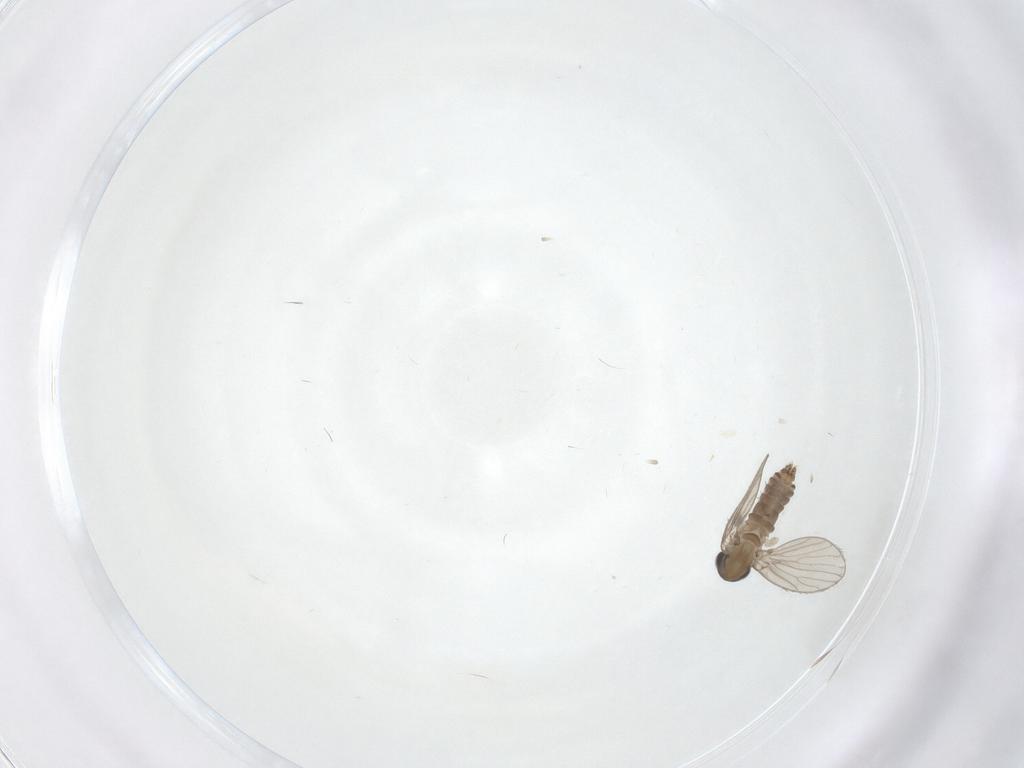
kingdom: Animalia
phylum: Arthropoda
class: Insecta
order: Diptera
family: Psychodidae
